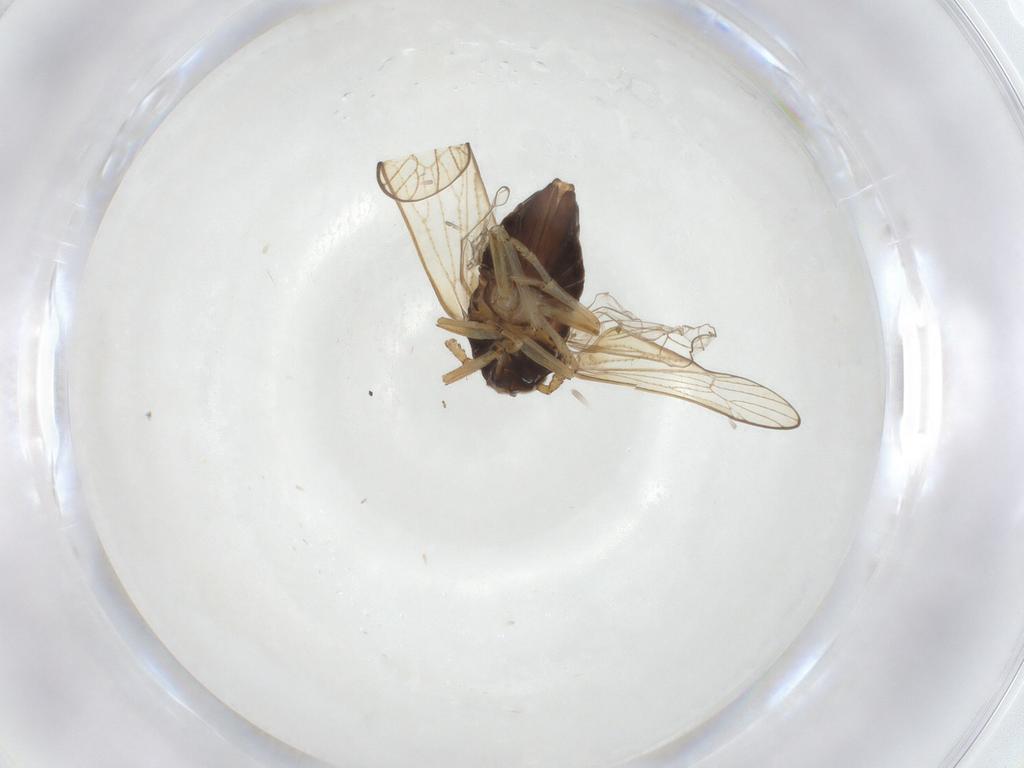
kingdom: Animalia
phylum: Arthropoda
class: Insecta
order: Hemiptera
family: Delphacidae
